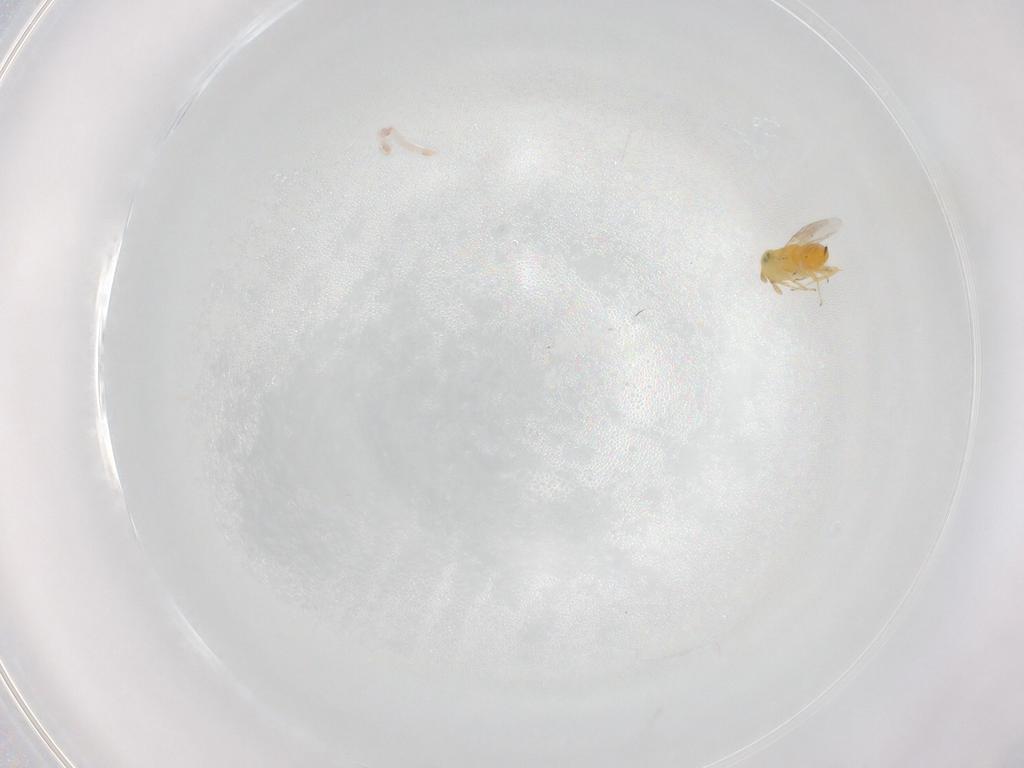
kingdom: Animalia
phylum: Arthropoda
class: Insecta
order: Hymenoptera
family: Encyrtidae
